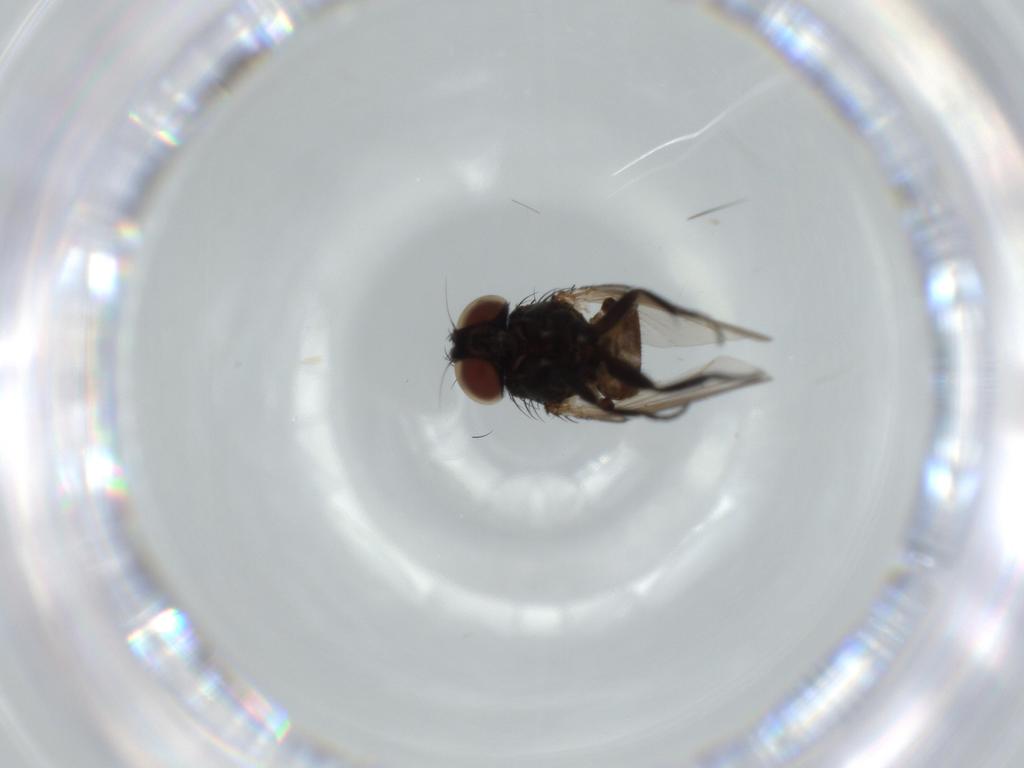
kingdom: Animalia
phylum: Arthropoda
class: Insecta
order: Diptera
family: Milichiidae
